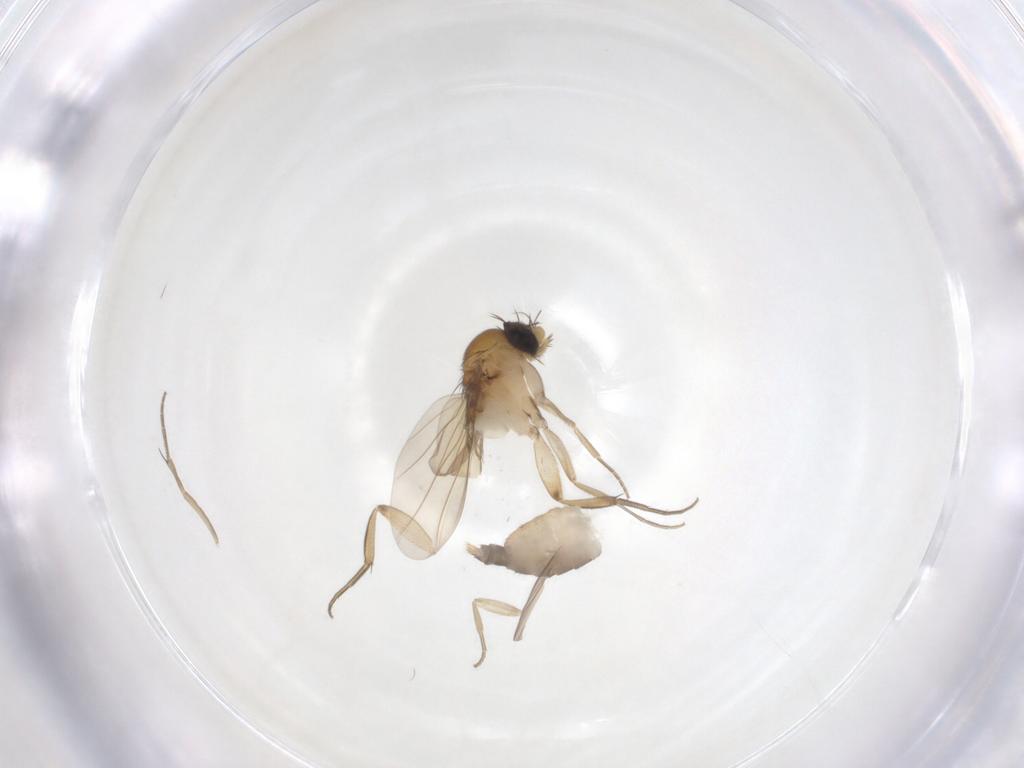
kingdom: Animalia
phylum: Arthropoda
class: Insecta
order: Diptera
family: Phoridae
